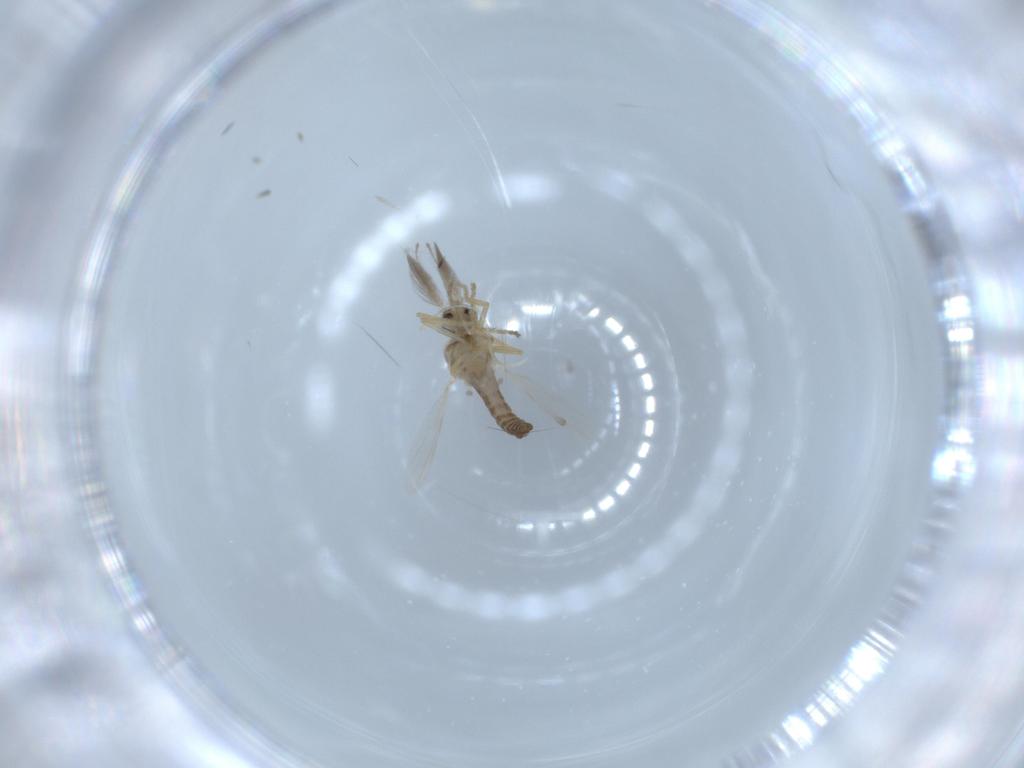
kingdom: Animalia
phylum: Arthropoda
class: Insecta
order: Diptera
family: Ceratopogonidae
